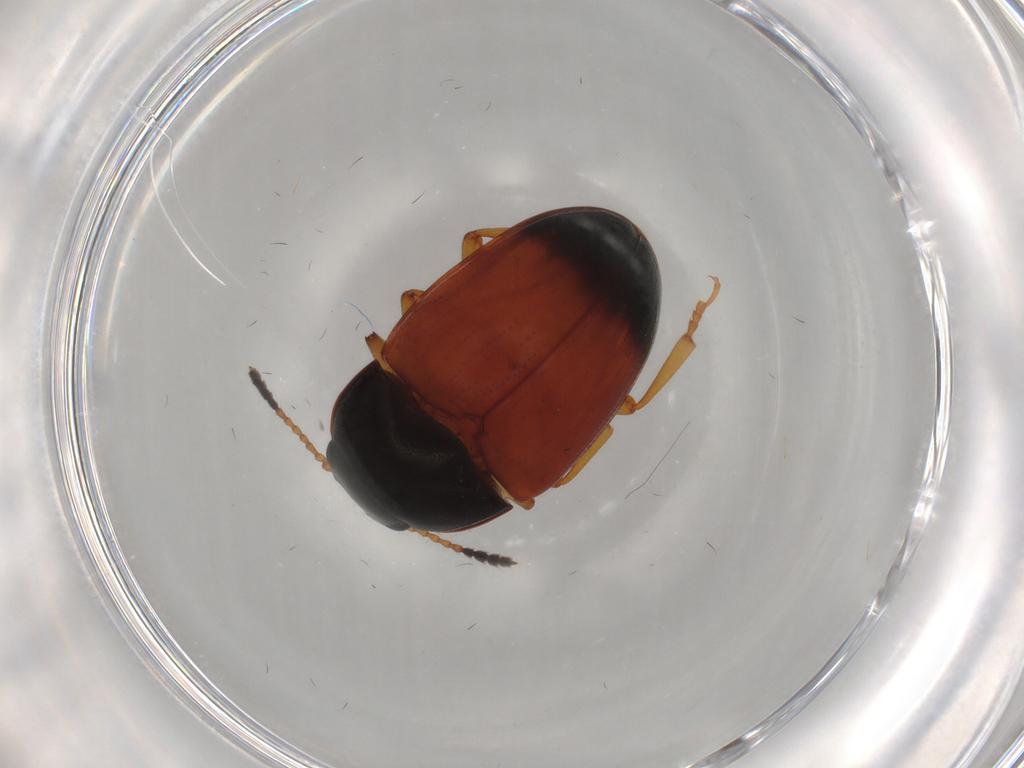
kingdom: Animalia
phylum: Arthropoda
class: Insecta
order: Coleoptera
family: Erotylidae
